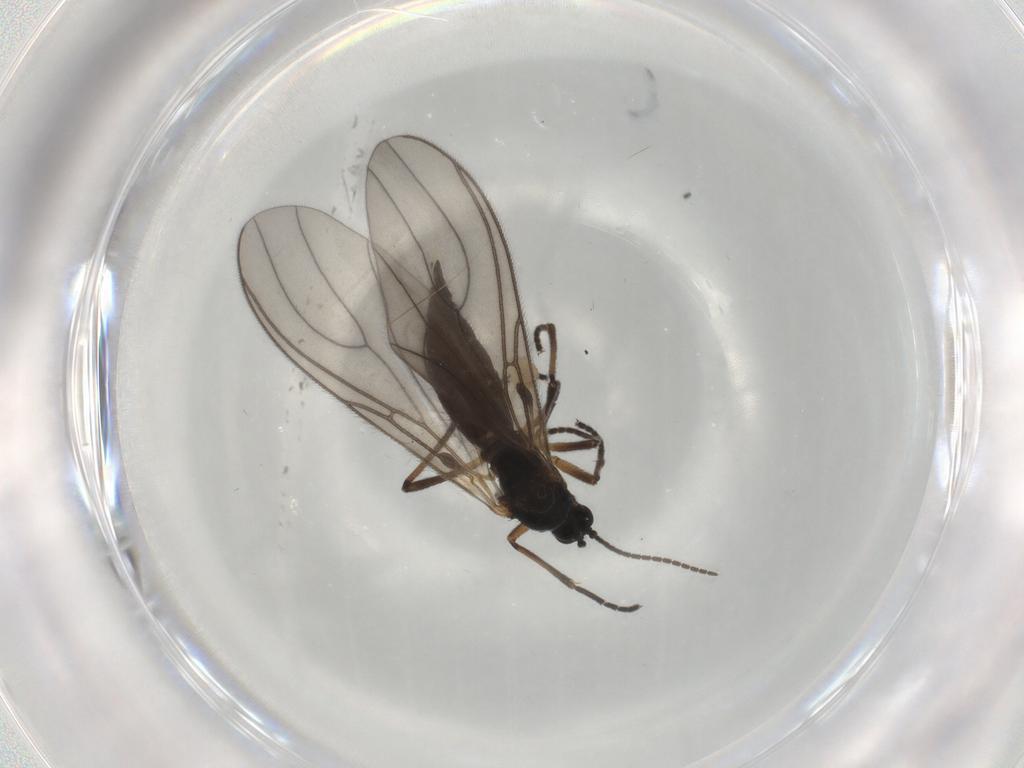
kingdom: Animalia
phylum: Arthropoda
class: Insecta
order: Diptera
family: Sciaridae
